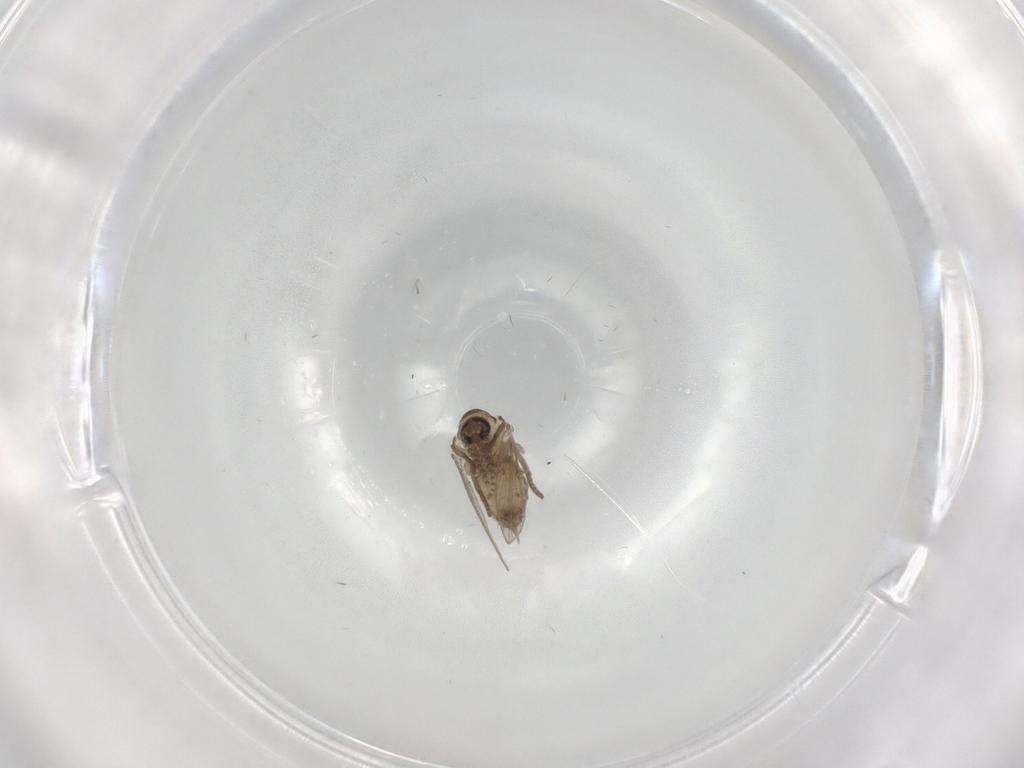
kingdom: Animalia
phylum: Arthropoda
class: Insecta
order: Diptera
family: Psychodidae
